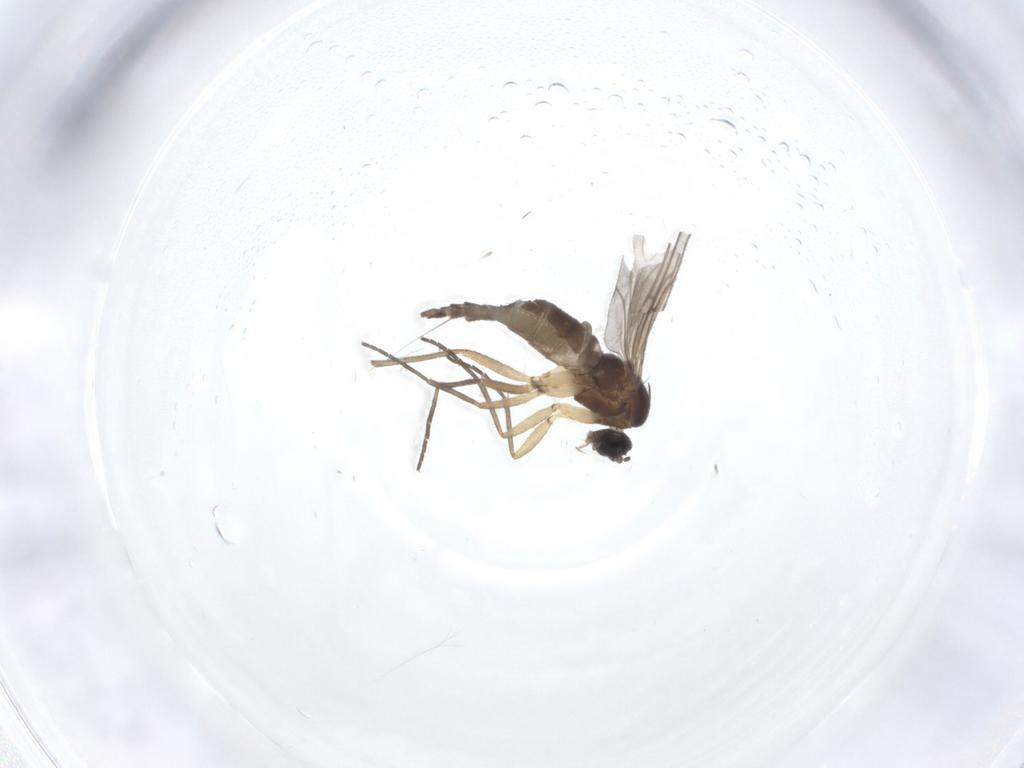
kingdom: Animalia
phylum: Arthropoda
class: Insecta
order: Diptera
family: Sciaridae
